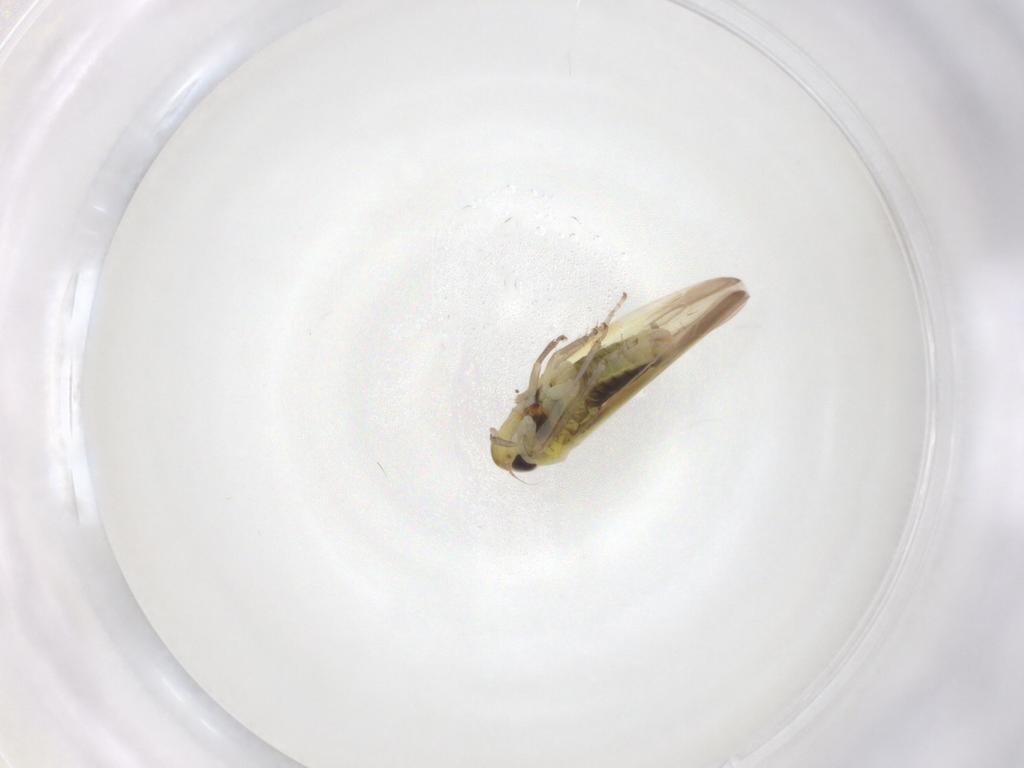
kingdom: Animalia
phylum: Arthropoda
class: Insecta
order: Hemiptera
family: Cicadellidae
